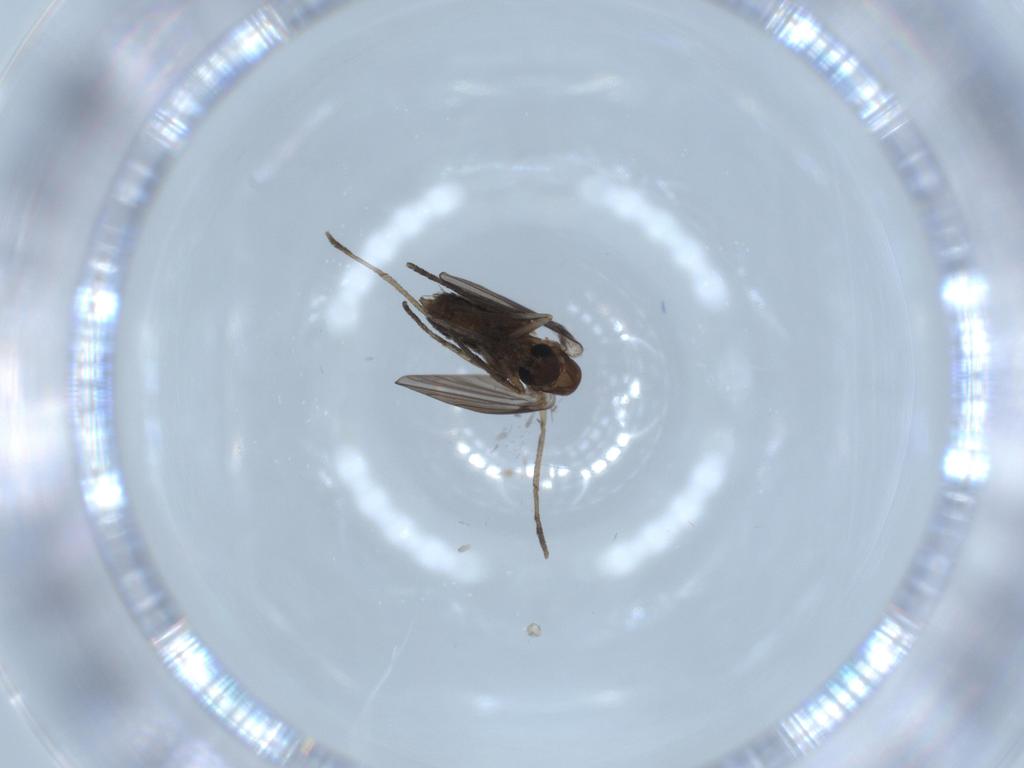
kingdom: Animalia
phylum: Arthropoda
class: Insecta
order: Diptera
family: Psychodidae
